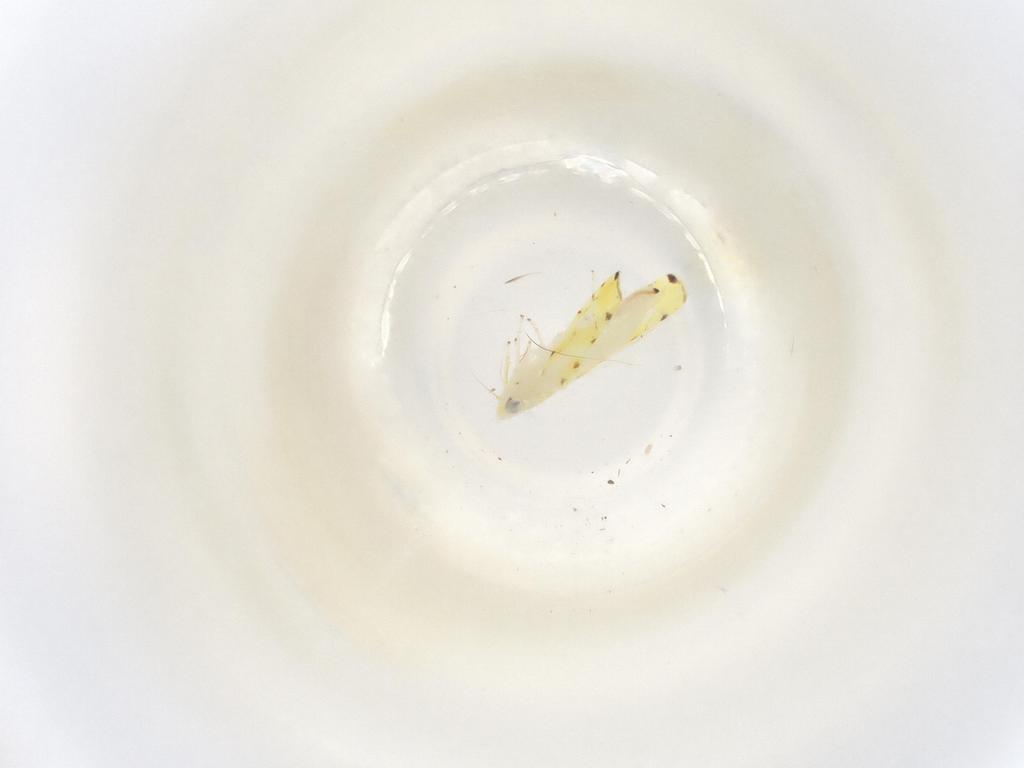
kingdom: Animalia
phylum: Arthropoda
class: Insecta
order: Hemiptera
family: Cicadellidae
